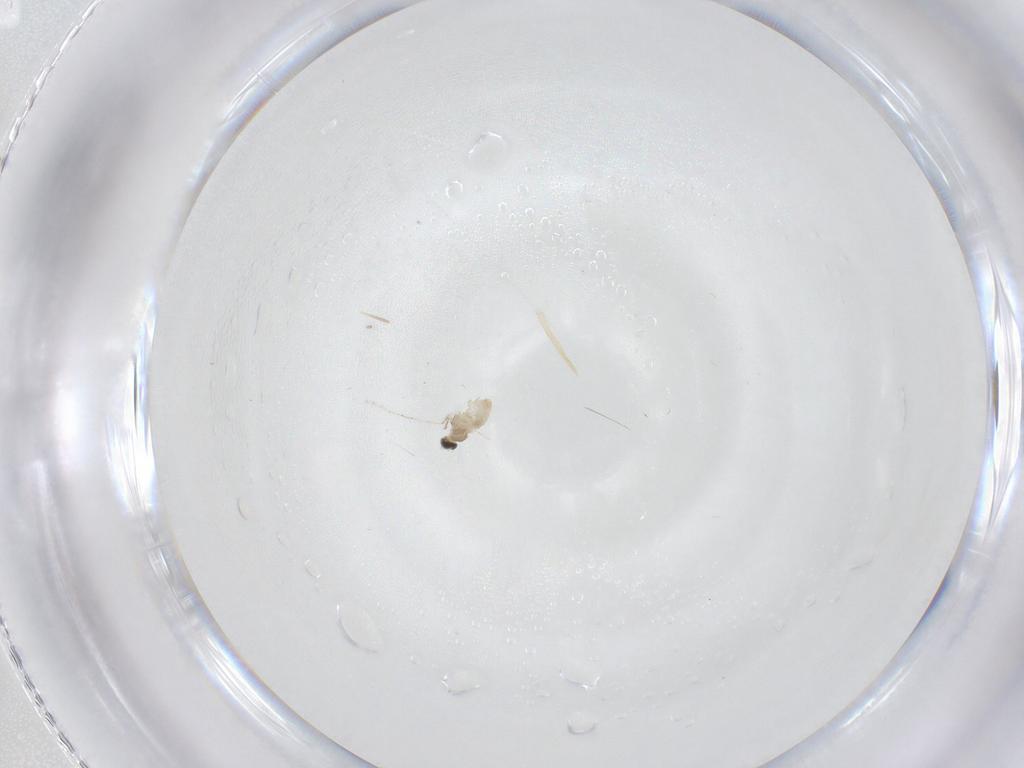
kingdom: Animalia
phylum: Arthropoda
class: Insecta
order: Diptera
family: Cecidomyiidae
